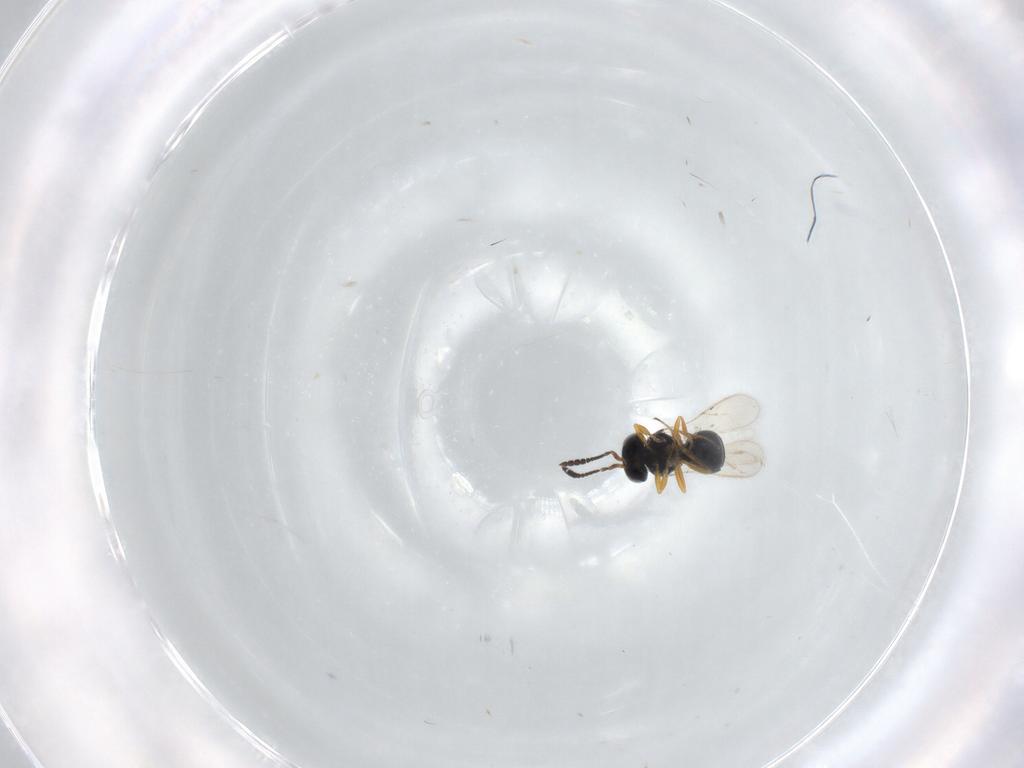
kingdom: Animalia
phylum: Arthropoda
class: Insecta
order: Hymenoptera
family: Scelionidae
